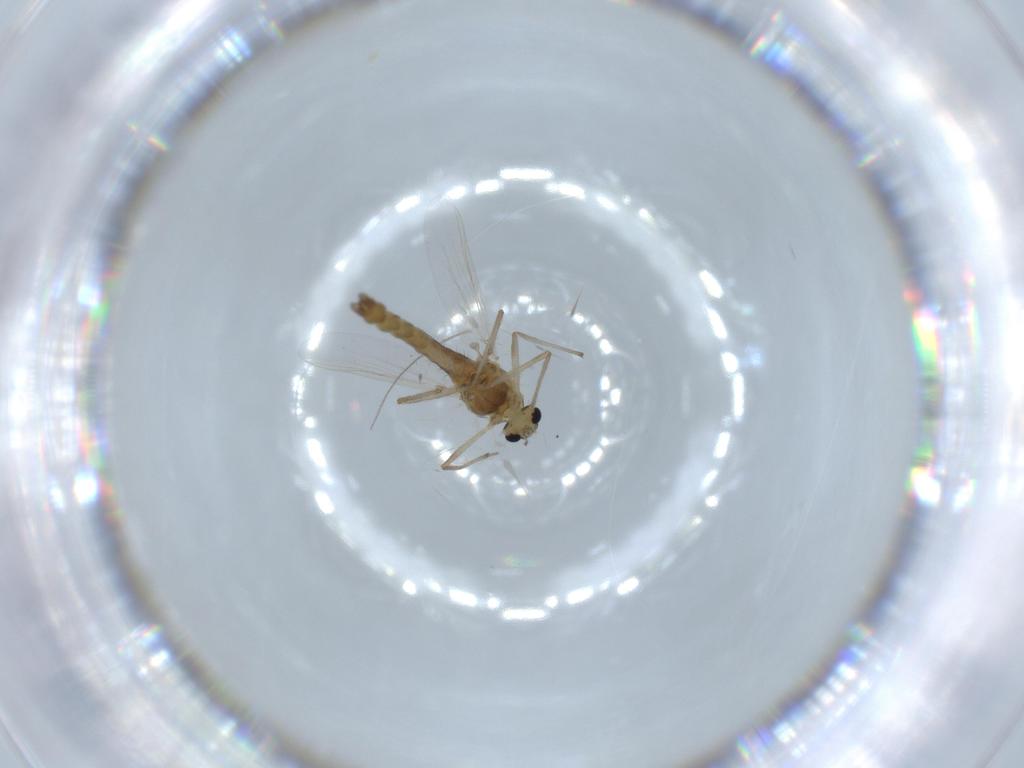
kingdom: Animalia
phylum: Arthropoda
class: Insecta
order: Diptera
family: Chironomidae
